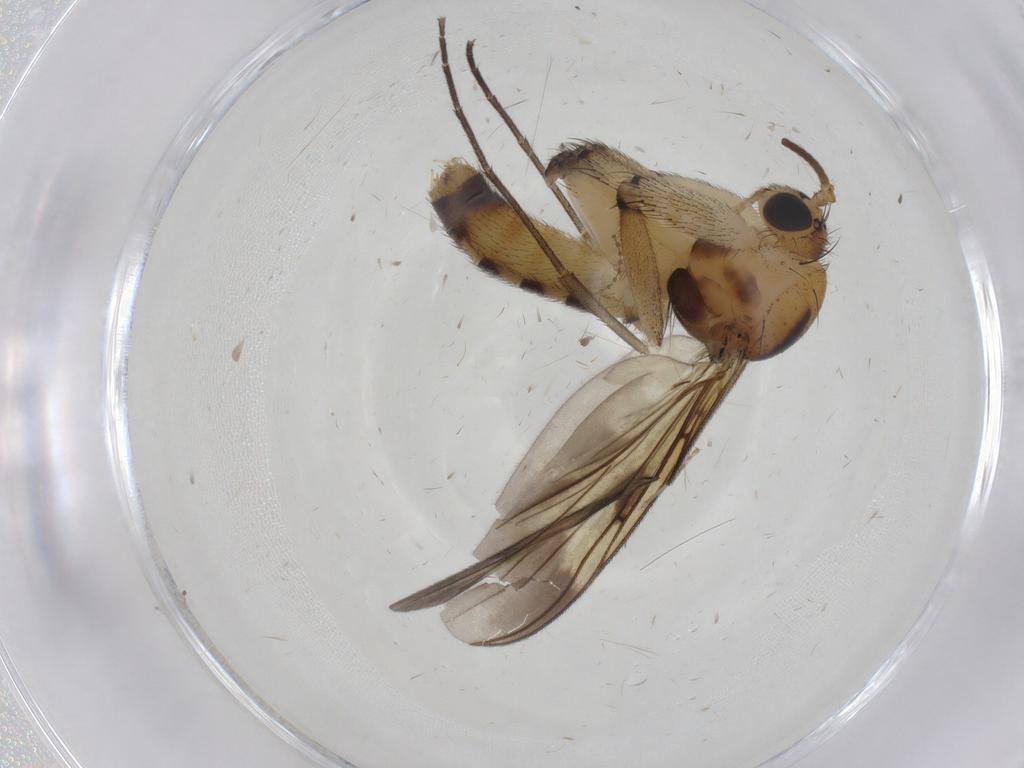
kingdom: Animalia
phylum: Arthropoda
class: Insecta
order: Diptera
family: Mycetophilidae
